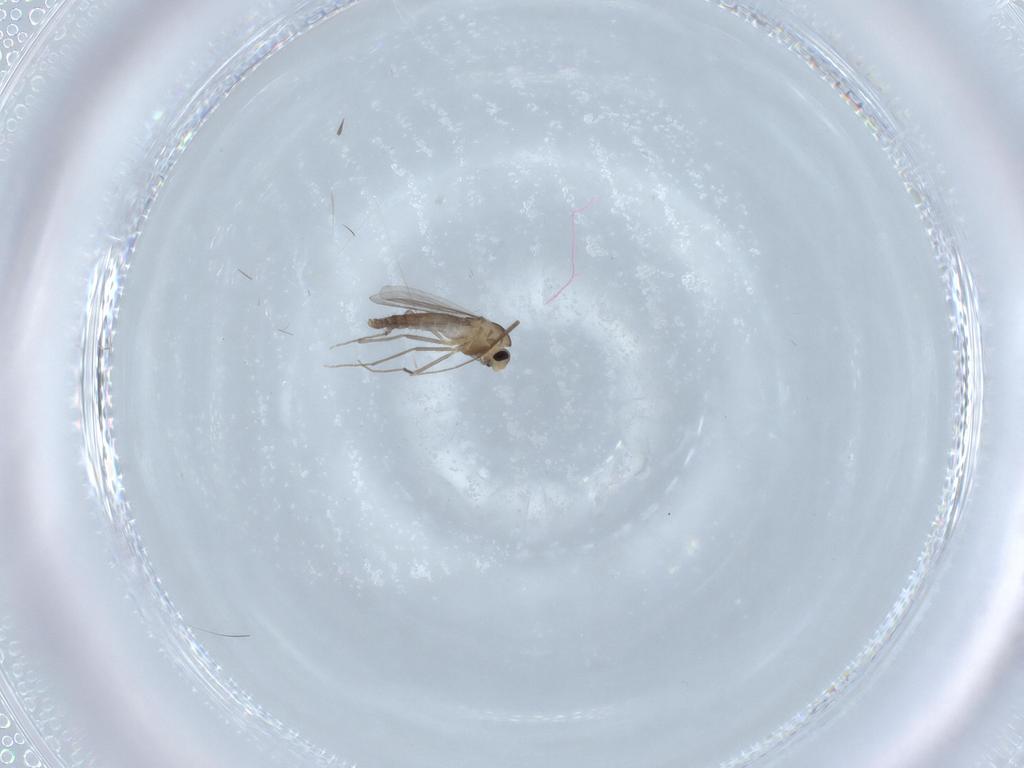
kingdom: Animalia
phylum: Arthropoda
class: Insecta
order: Diptera
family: Chironomidae
